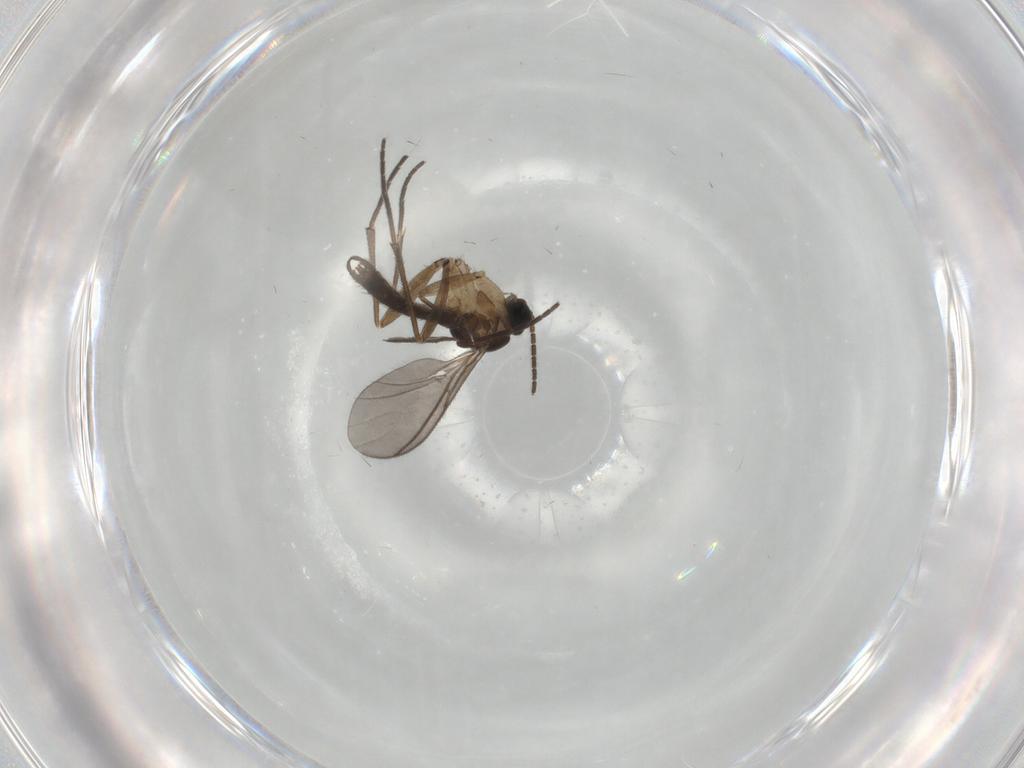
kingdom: Animalia
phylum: Arthropoda
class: Insecta
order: Diptera
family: Sciaridae
